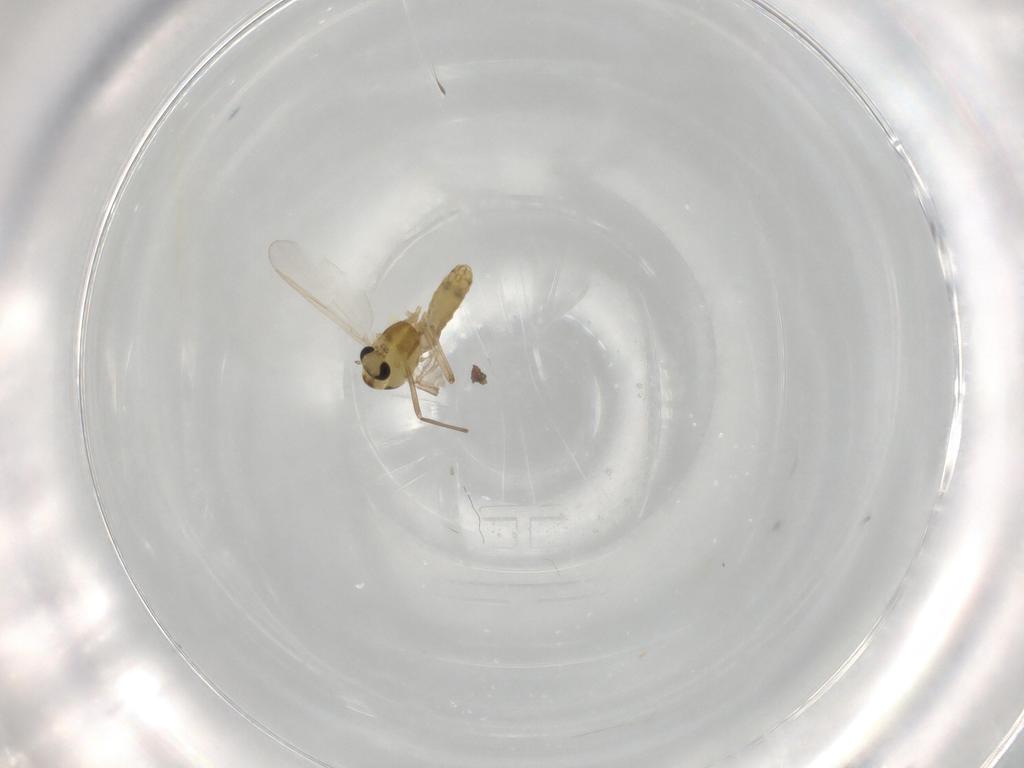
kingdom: Animalia
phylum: Arthropoda
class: Insecta
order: Diptera
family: Chironomidae
